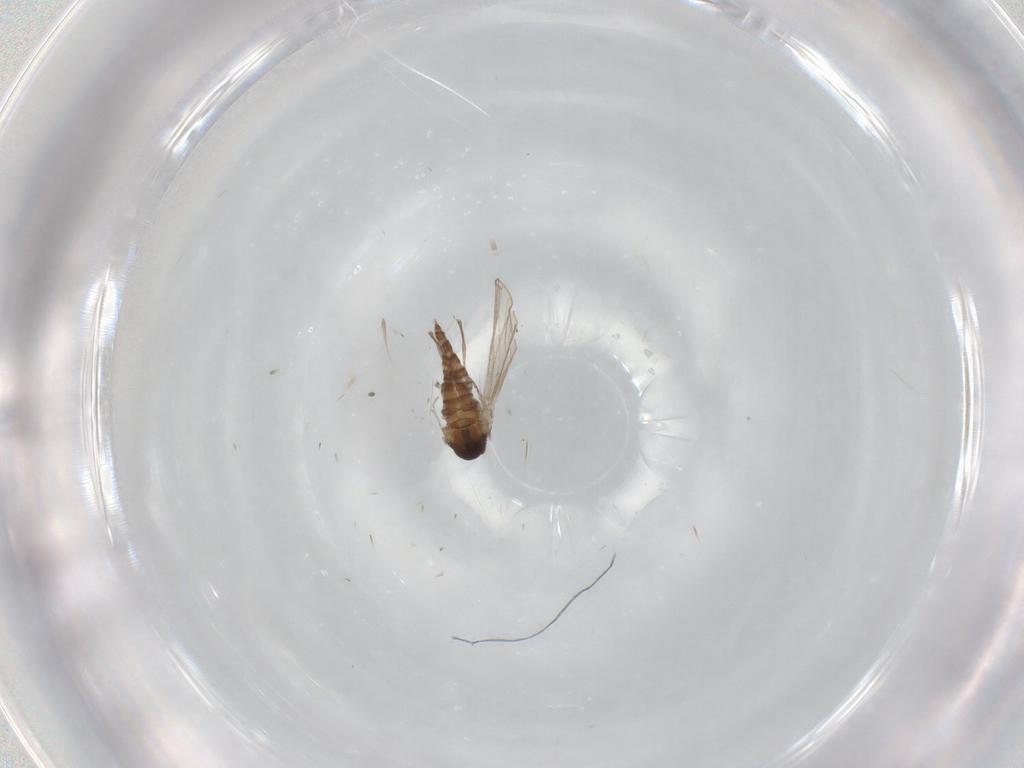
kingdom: Animalia
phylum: Arthropoda
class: Insecta
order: Diptera
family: Psychodidae
